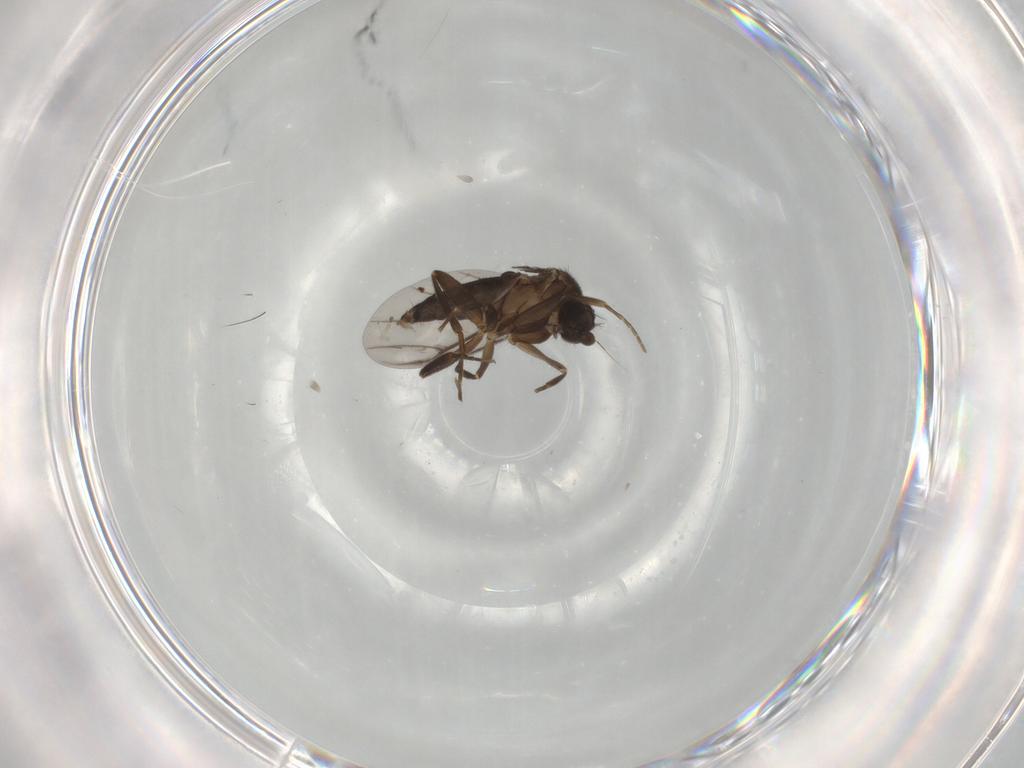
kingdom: Animalia
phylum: Arthropoda
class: Insecta
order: Diptera
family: Psychodidae
